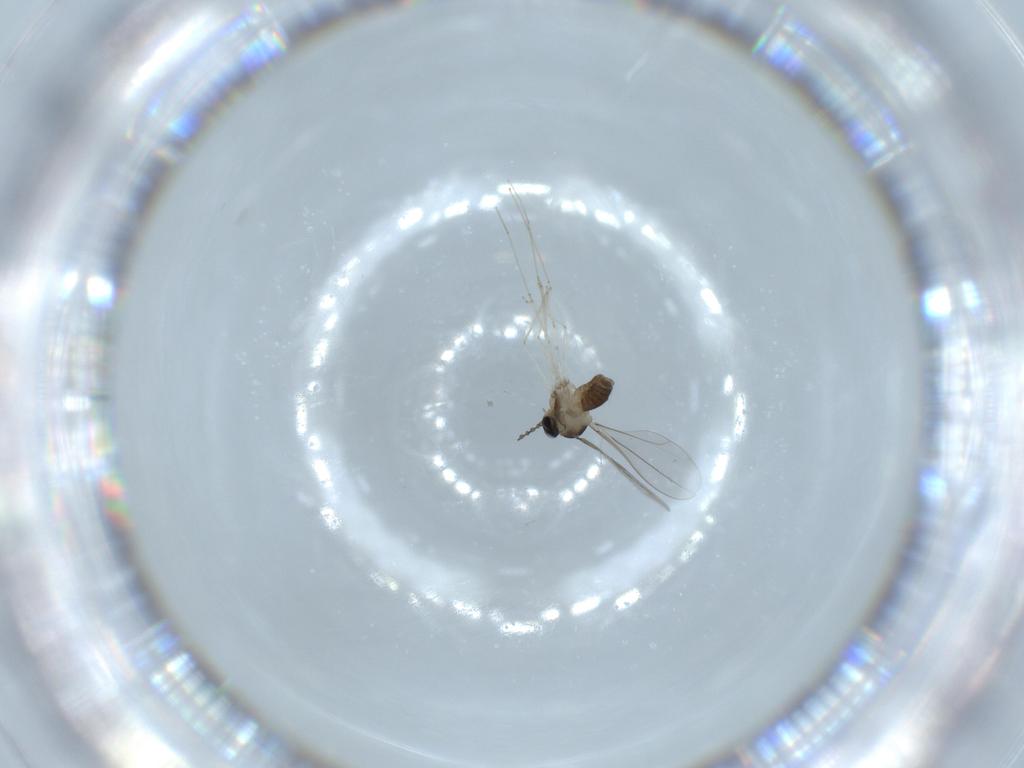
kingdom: Animalia
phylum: Arthropoda
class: Insecta
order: Diptera
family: Cecidomyiidae
